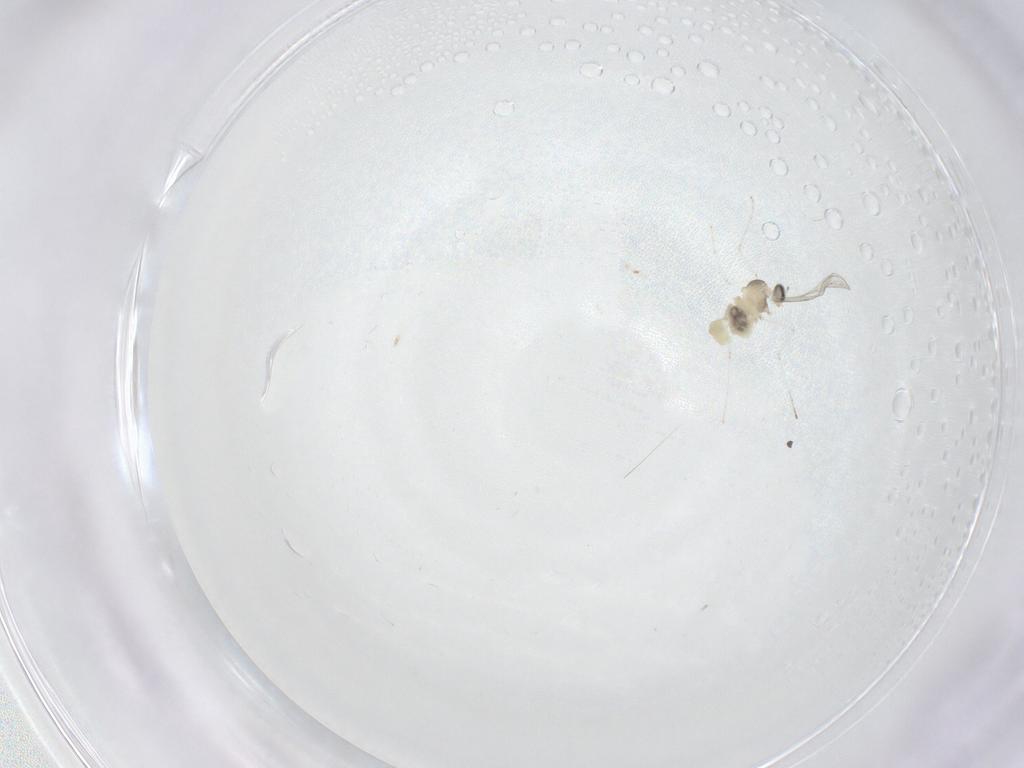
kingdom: Animalia
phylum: Arthropoda
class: Insecta
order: Diptera
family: Cecidomyiidae
